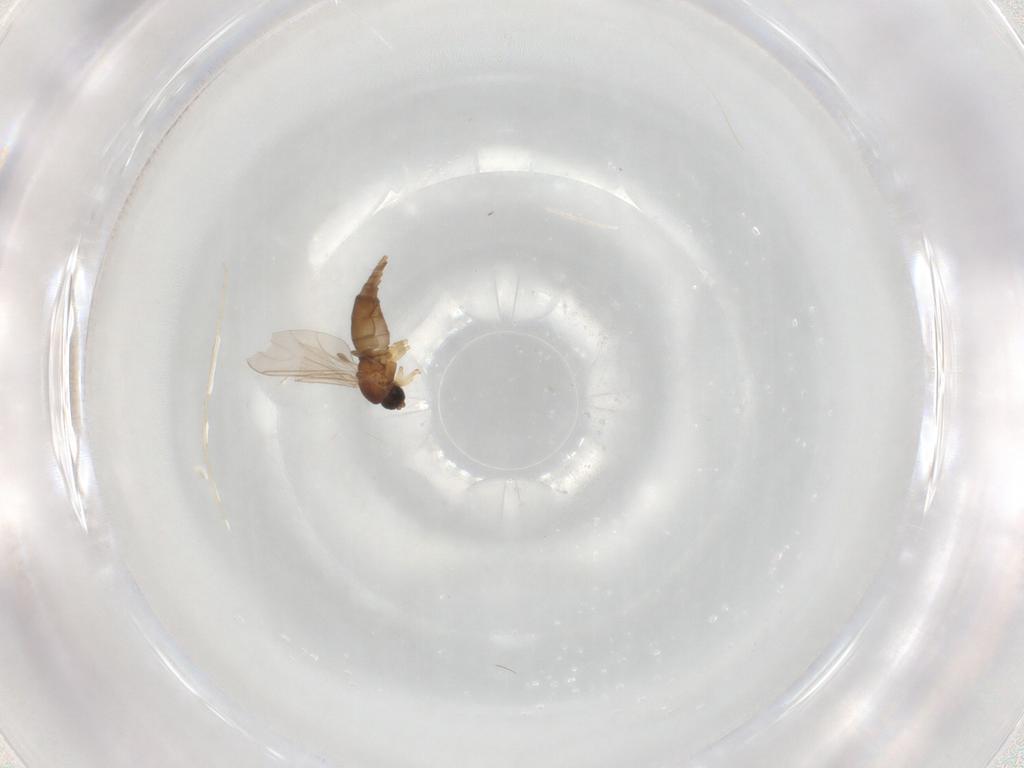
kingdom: Animalia
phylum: Arthropoda
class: Insecta
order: Diptera
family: Sciaridae
